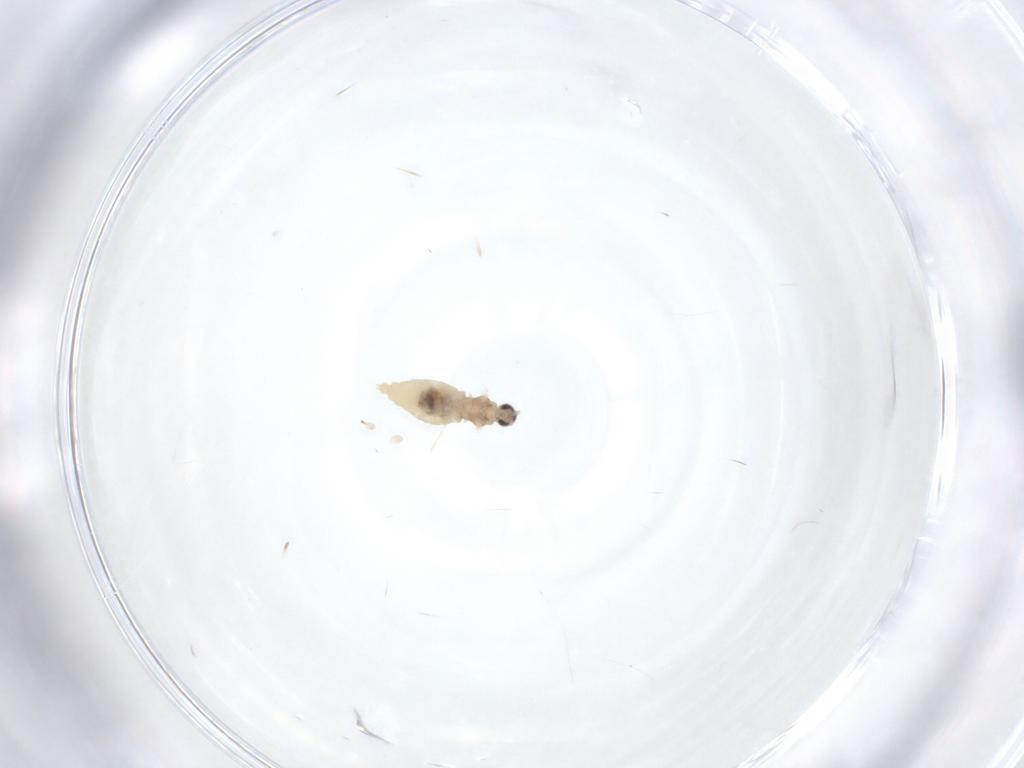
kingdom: Animalia
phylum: Arthropoda
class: Insecta
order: Diptera
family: Cecidomyiidae
